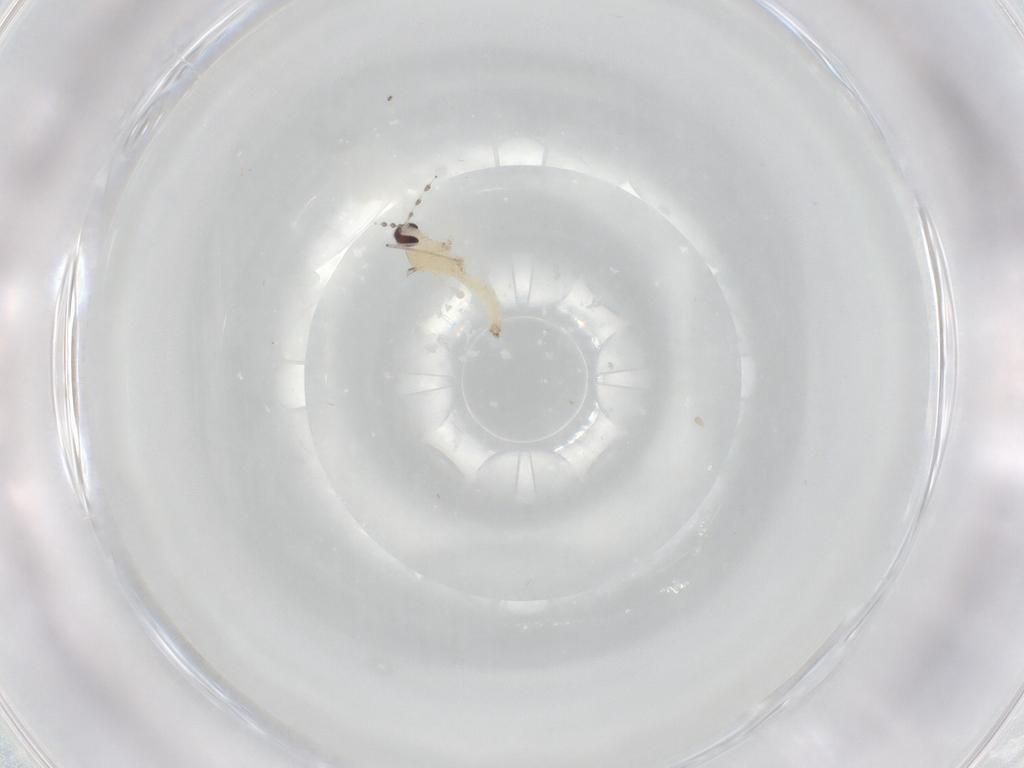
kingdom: Animalia
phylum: Arthropoda
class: Insecta
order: Diptera
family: Cecidomyiidae
